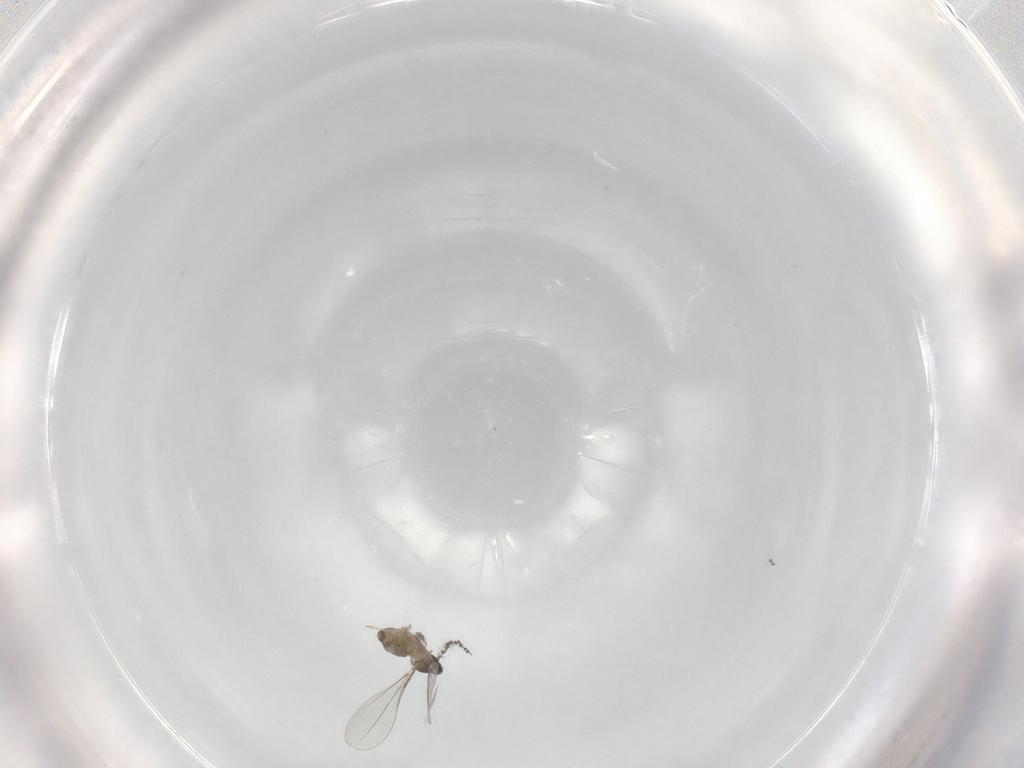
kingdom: Animalia
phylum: Arthropoda
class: Insecta
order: Diptera
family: Cecidomyiidae
